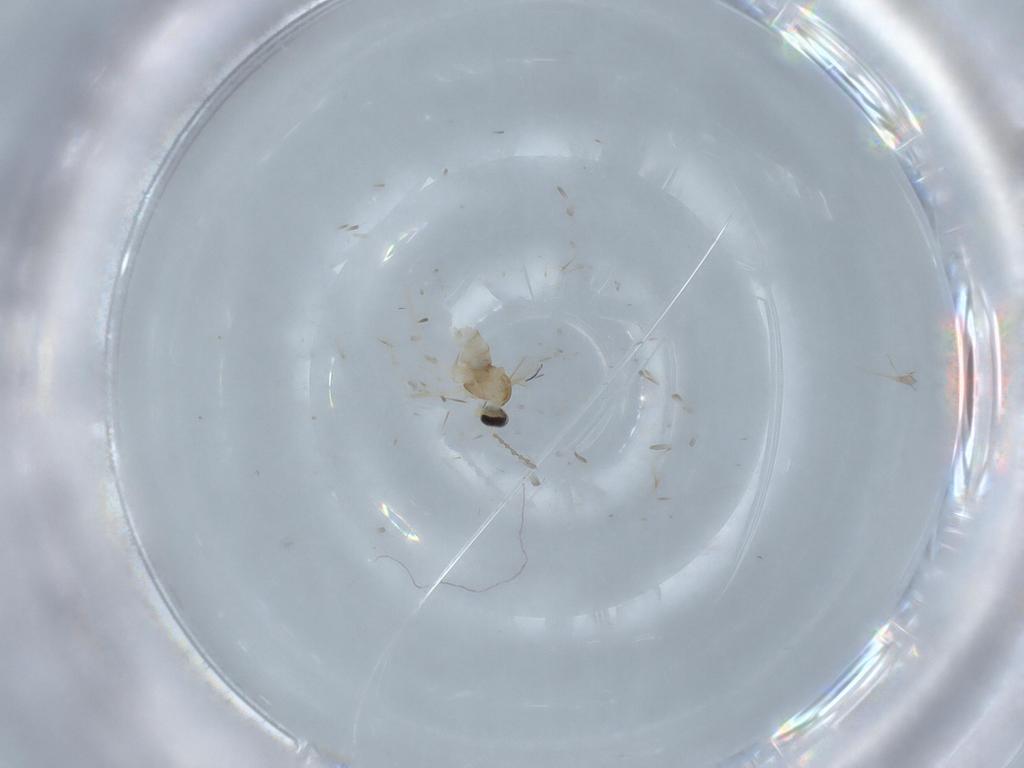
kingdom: Animalia
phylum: Arthropoda
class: Insecta
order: Diptera
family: Cecidomyiidae
